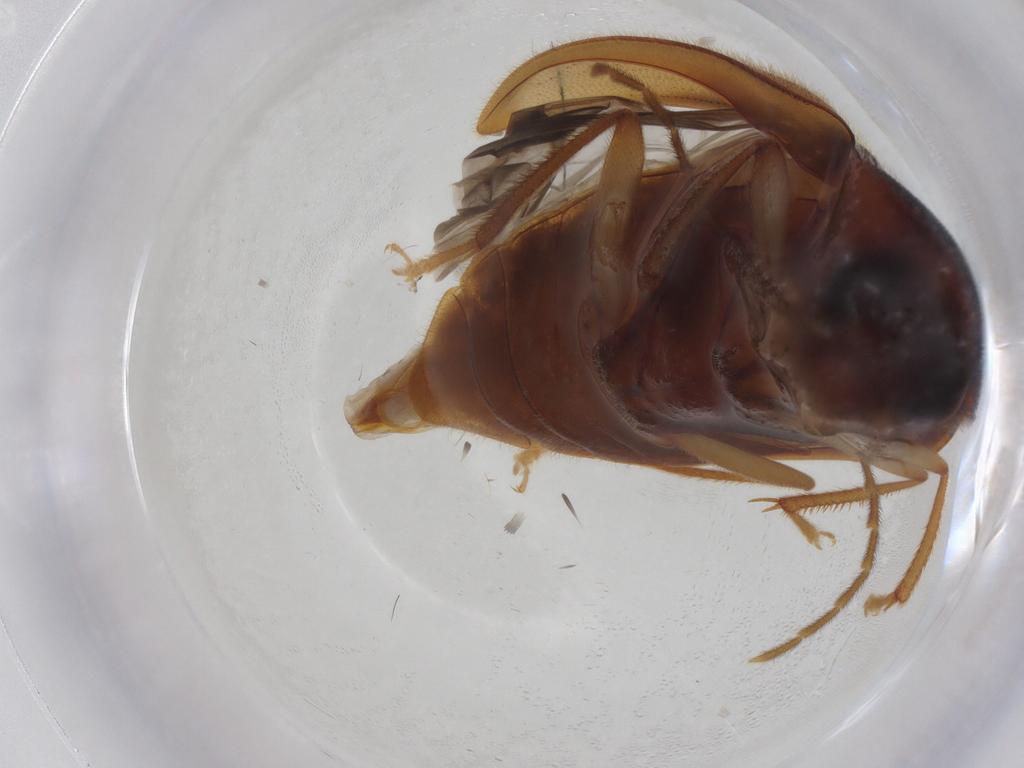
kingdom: Animalia
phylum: Arthropoda
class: Insecta
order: Coleoptera
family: Ptilodactylidae
